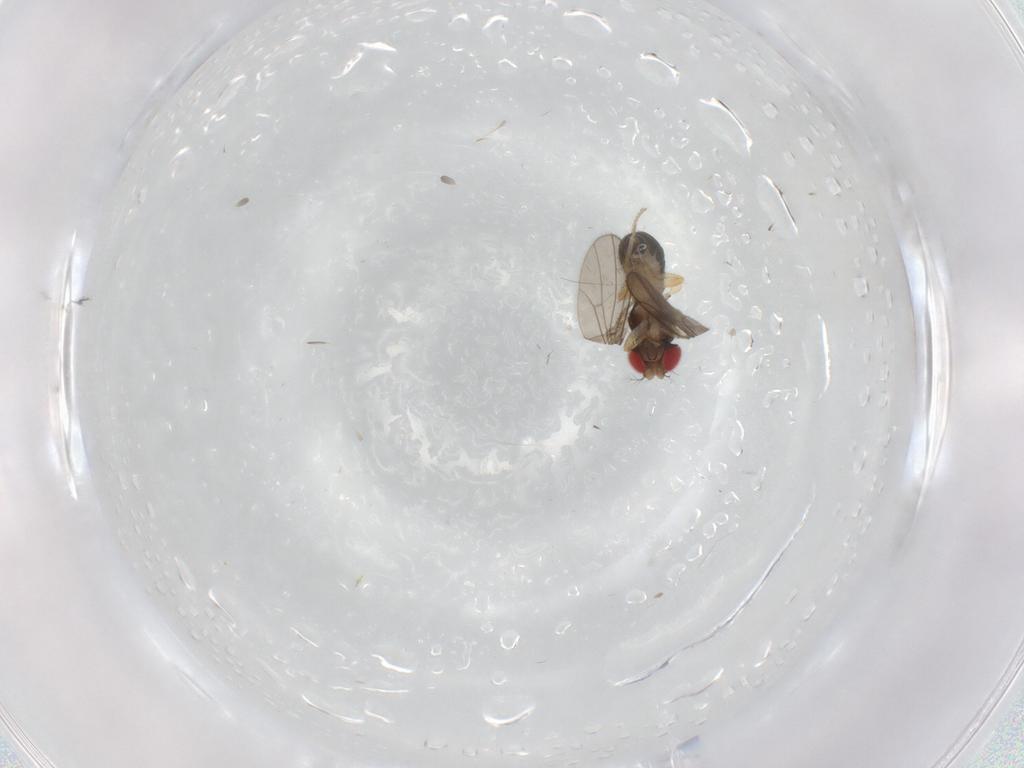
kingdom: Animalia
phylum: Arthropoda
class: Insecta
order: Diptera
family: Drosophilidae
